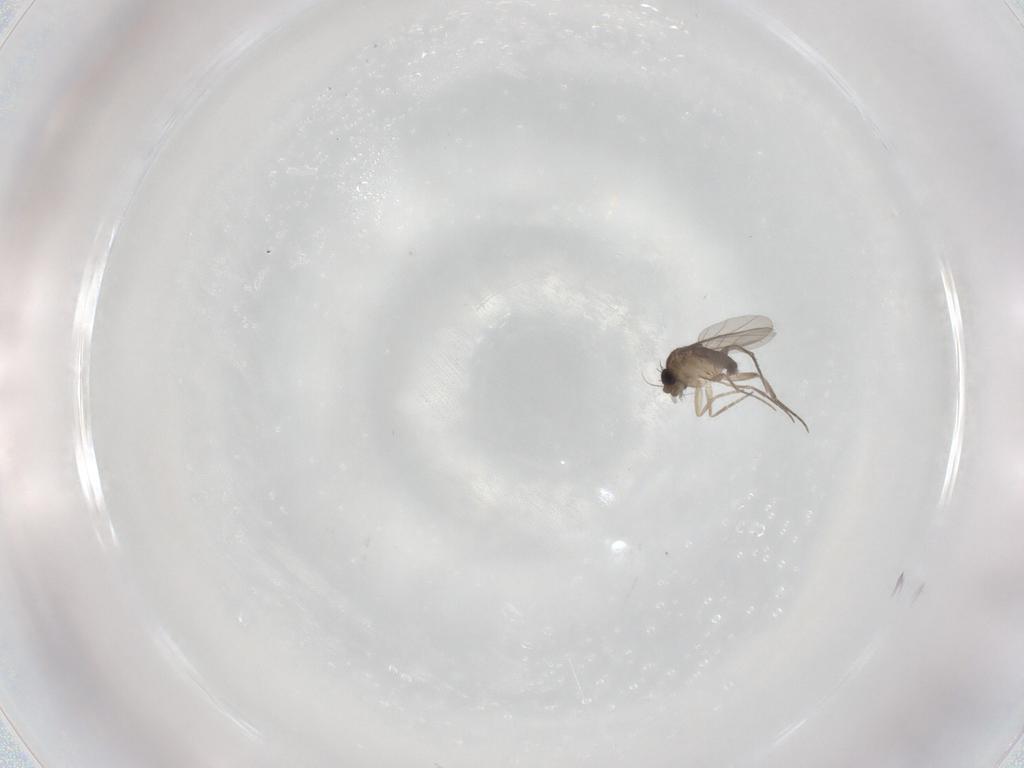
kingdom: Animalia
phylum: Arthropoda
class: Insecta
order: Diptera
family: Phoridae
